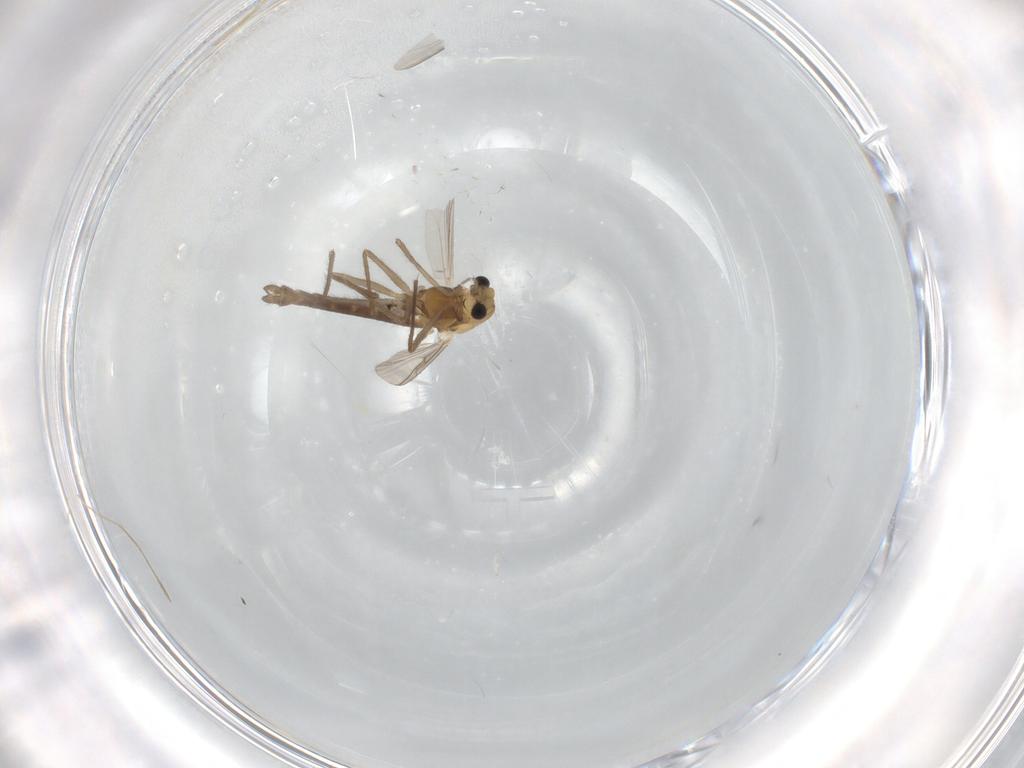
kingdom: Animalia
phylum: Arthropoda
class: Insecta
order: Diptera
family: Chironomidae
